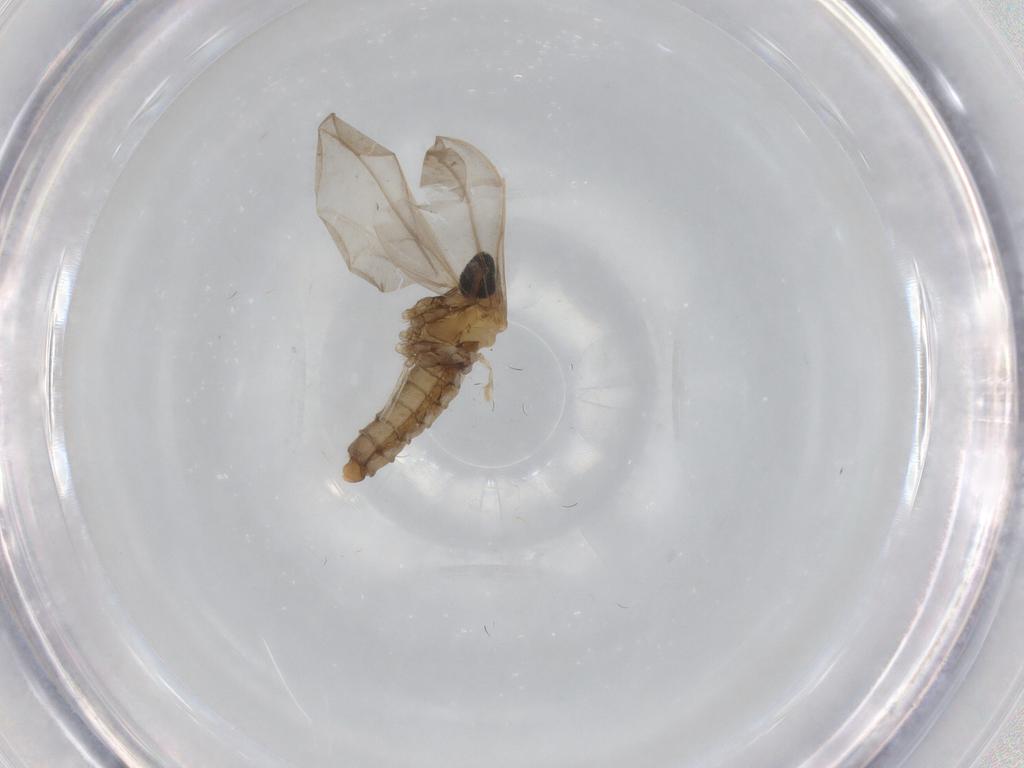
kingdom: Animalia
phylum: Arthropoda
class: Insecta
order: Diptera
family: Cecidomyiidae
